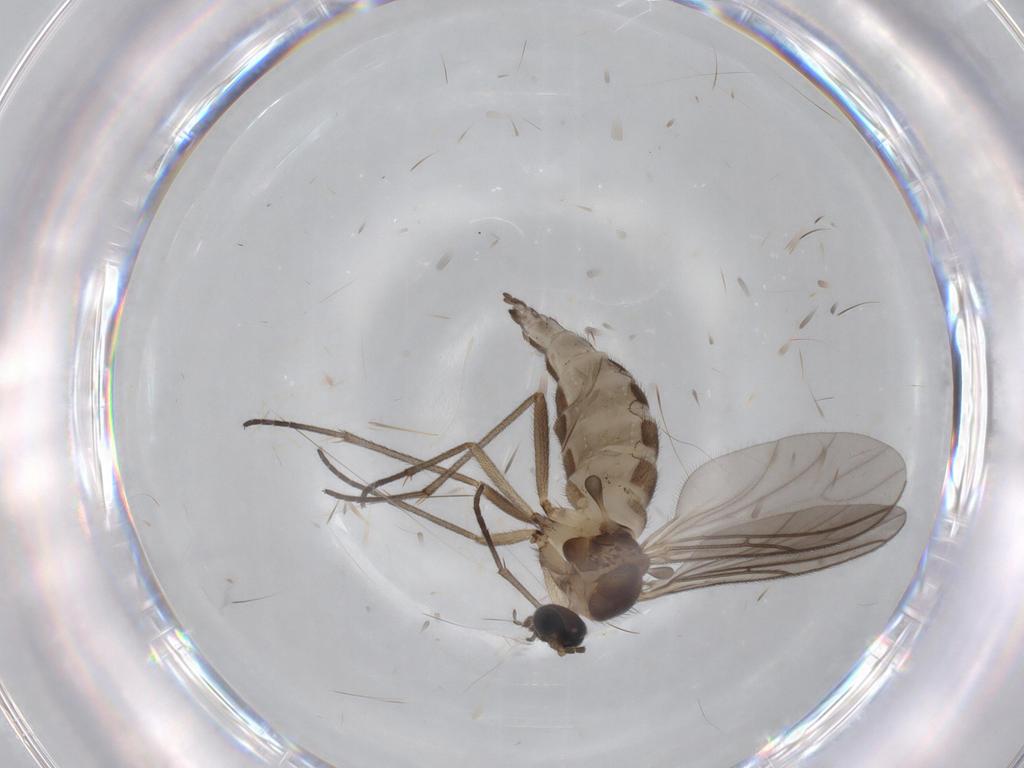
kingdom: Animalia
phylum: Arthropoda
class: Insecta
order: Diptera
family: Sciaridae
